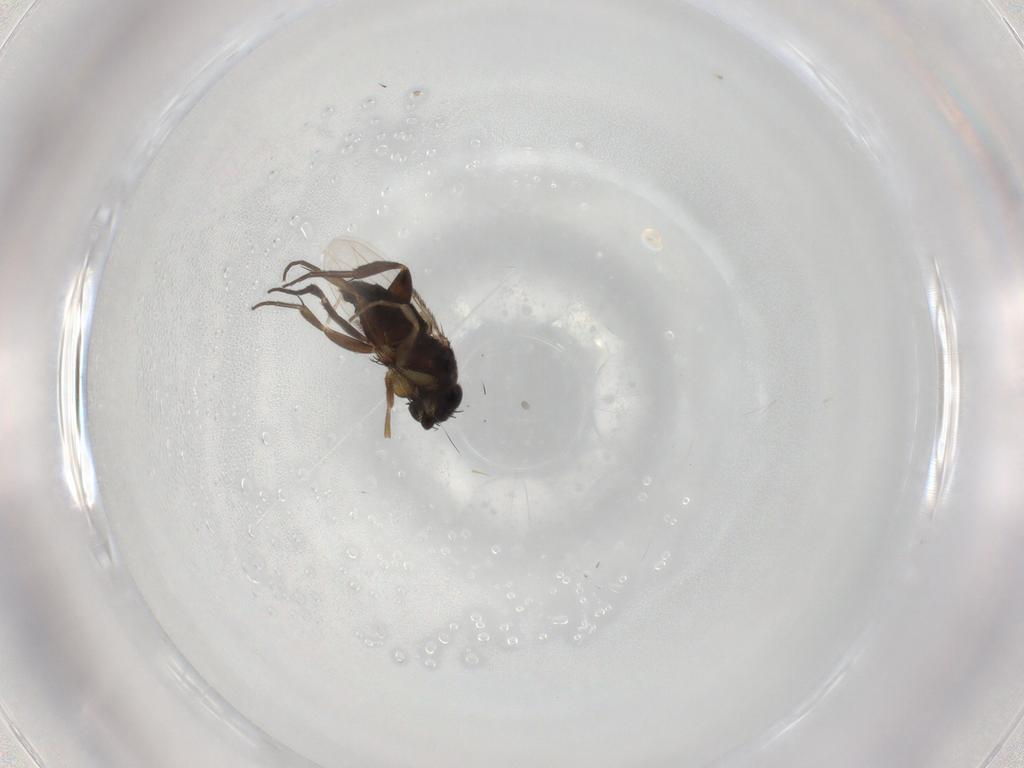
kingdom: Animalia
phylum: Arthropoda
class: Insecta
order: Diptera
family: Phoridae
